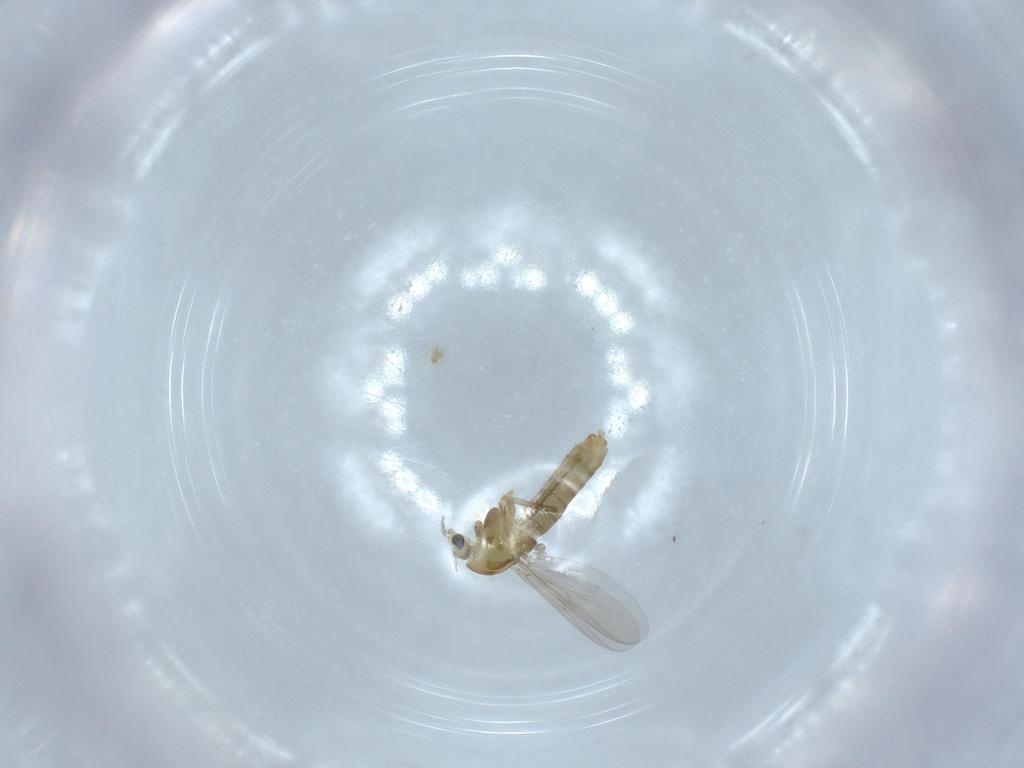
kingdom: Animalia
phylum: Arthropoda
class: Insecta
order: Diptera
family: Chironomidae
